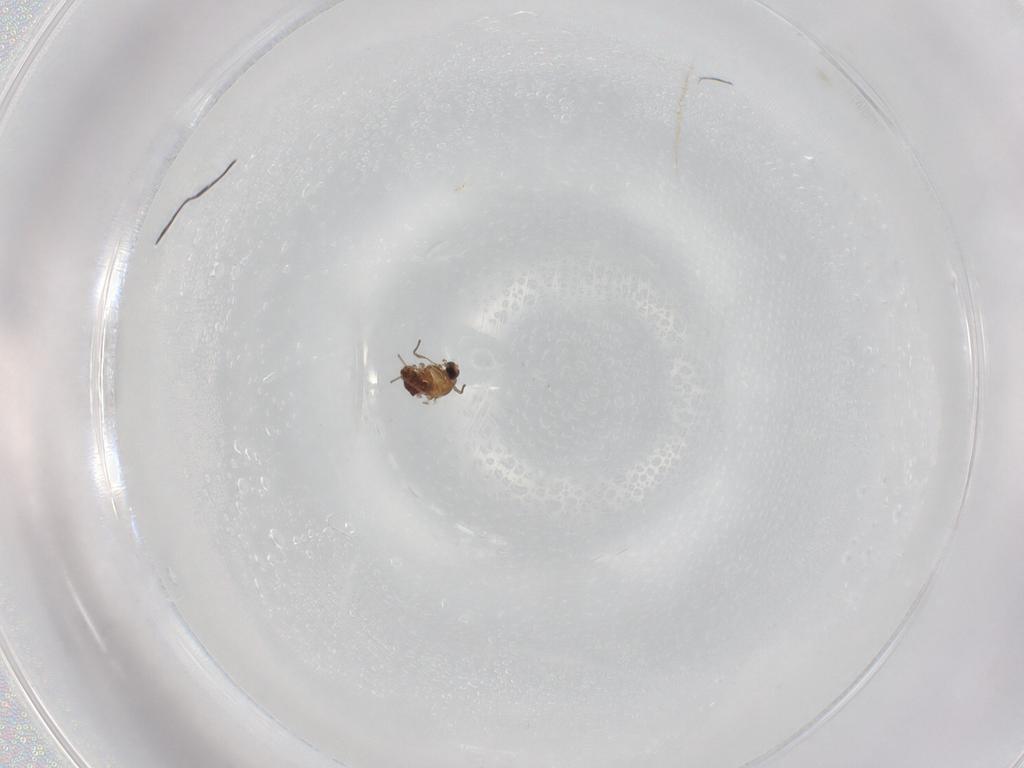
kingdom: Animalia
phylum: Arthropoda
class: Insecta
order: Diptera
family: Chironomidae
